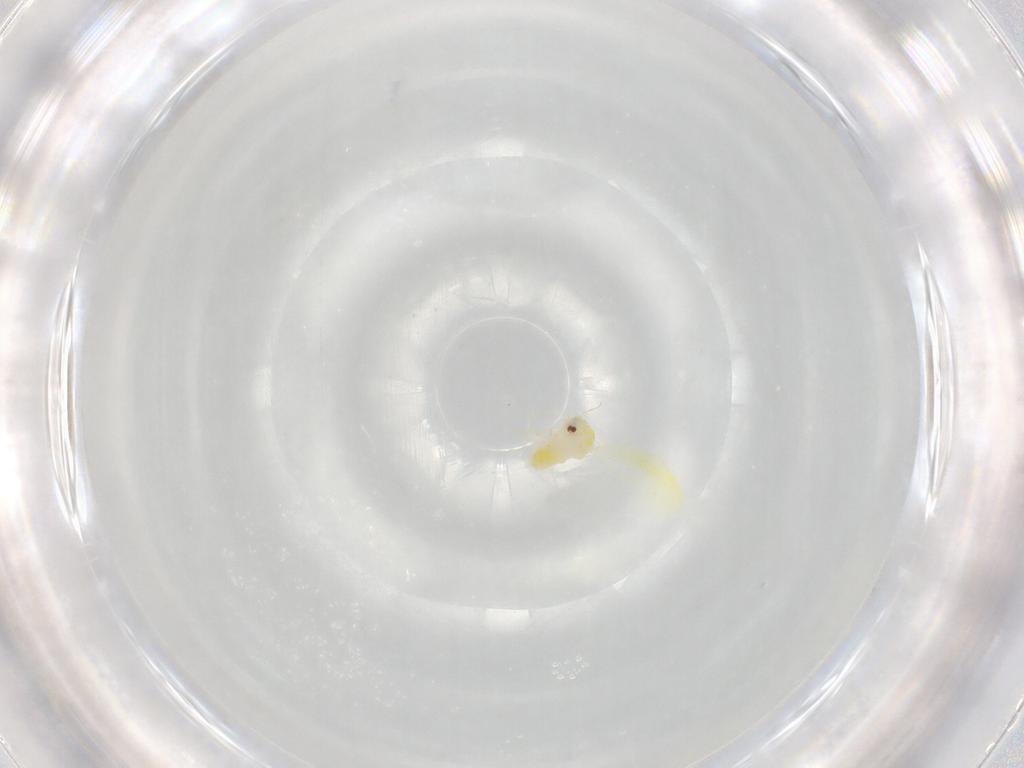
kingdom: Animalia
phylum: Arthropoda
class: Insecta
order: Hemiptera
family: Aleyrodidae
